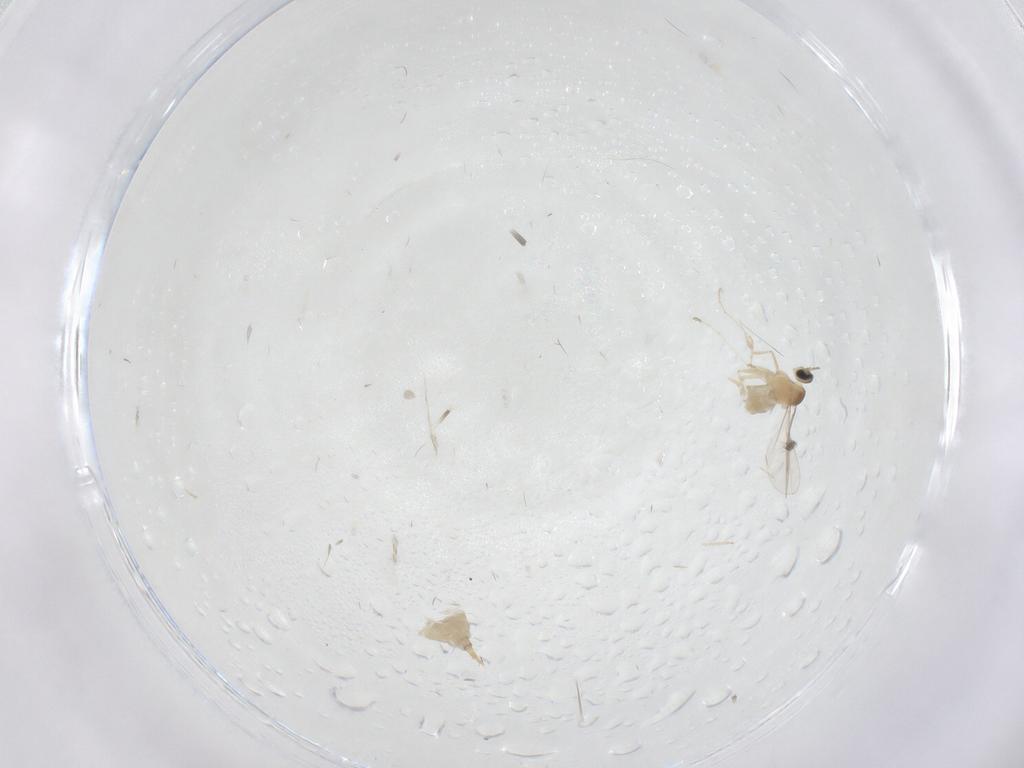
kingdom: Animalia
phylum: Arthropoda
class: Insecta
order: Diptera
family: Cecidomyiidae
